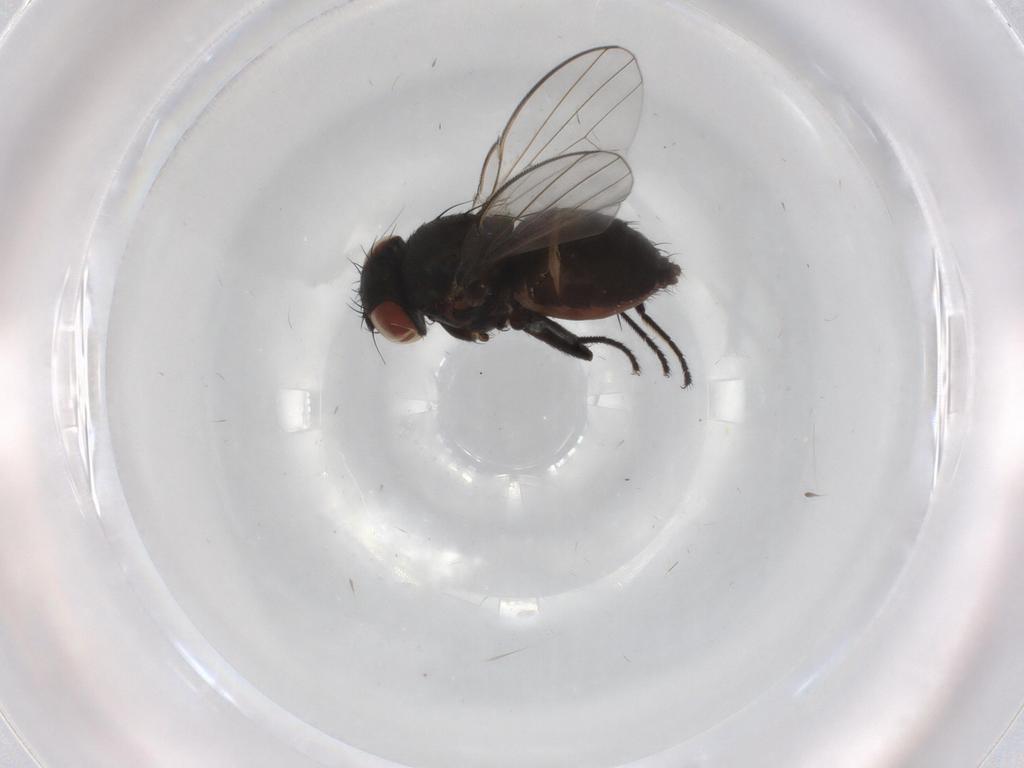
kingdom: Animalia
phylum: Arthropoda
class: Insecta
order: Diptera
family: Milichiidae
